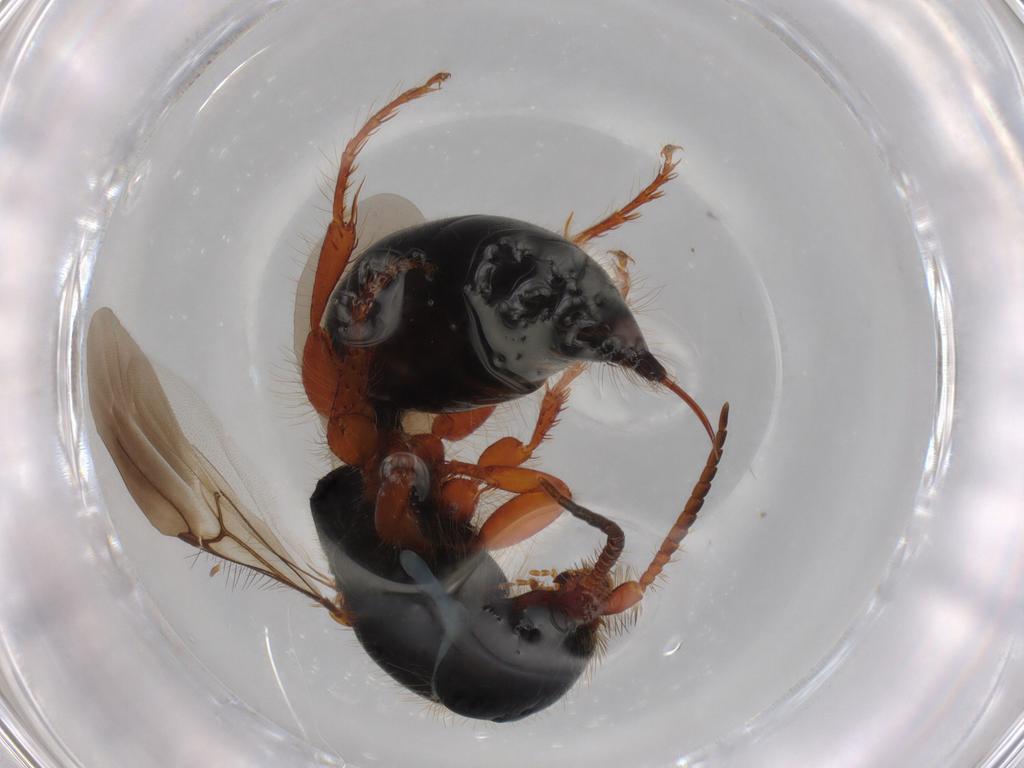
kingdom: Animalia
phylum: Arthropoda
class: Insecta
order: Hymenoptera
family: Bethylidae
